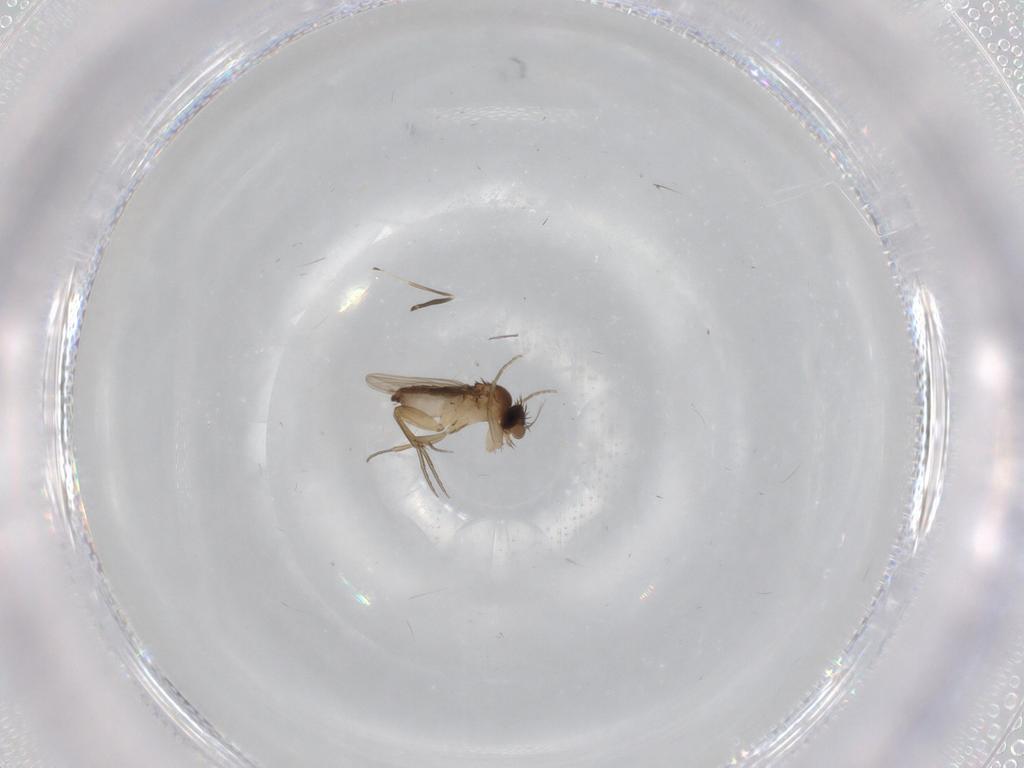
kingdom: Animalia
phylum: Arthropoda
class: Insecta
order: Diptera
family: Phoridae
